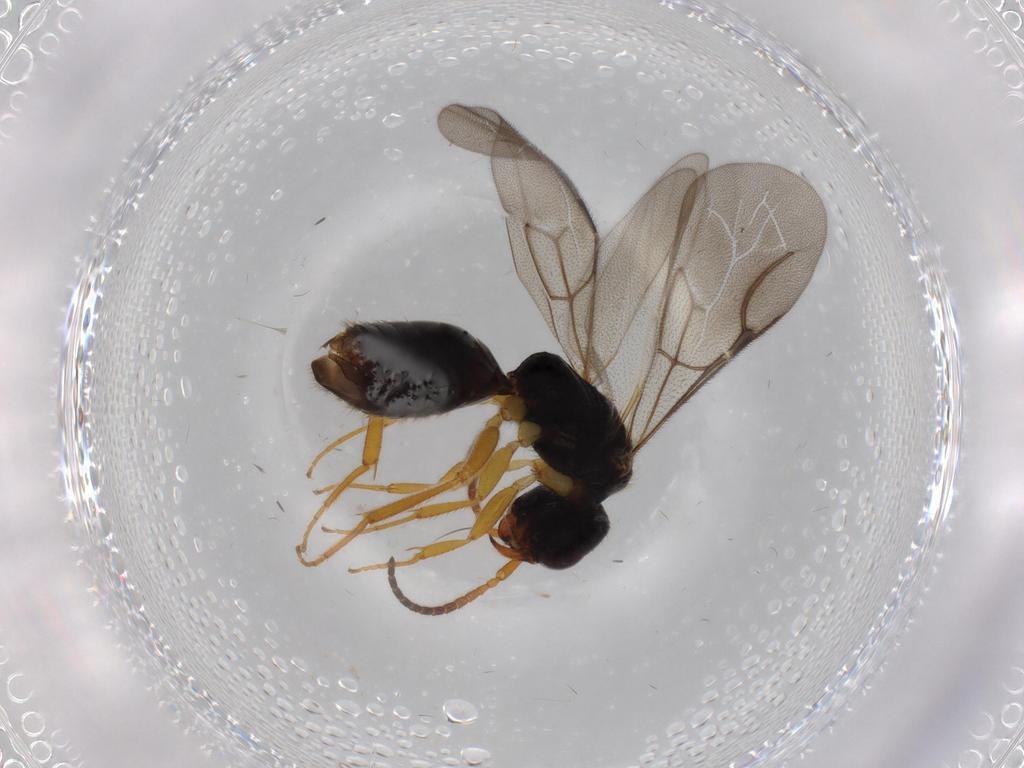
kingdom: Animalia
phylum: Arthropoda
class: Insecta
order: Hymenoptera
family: Bethylidae
